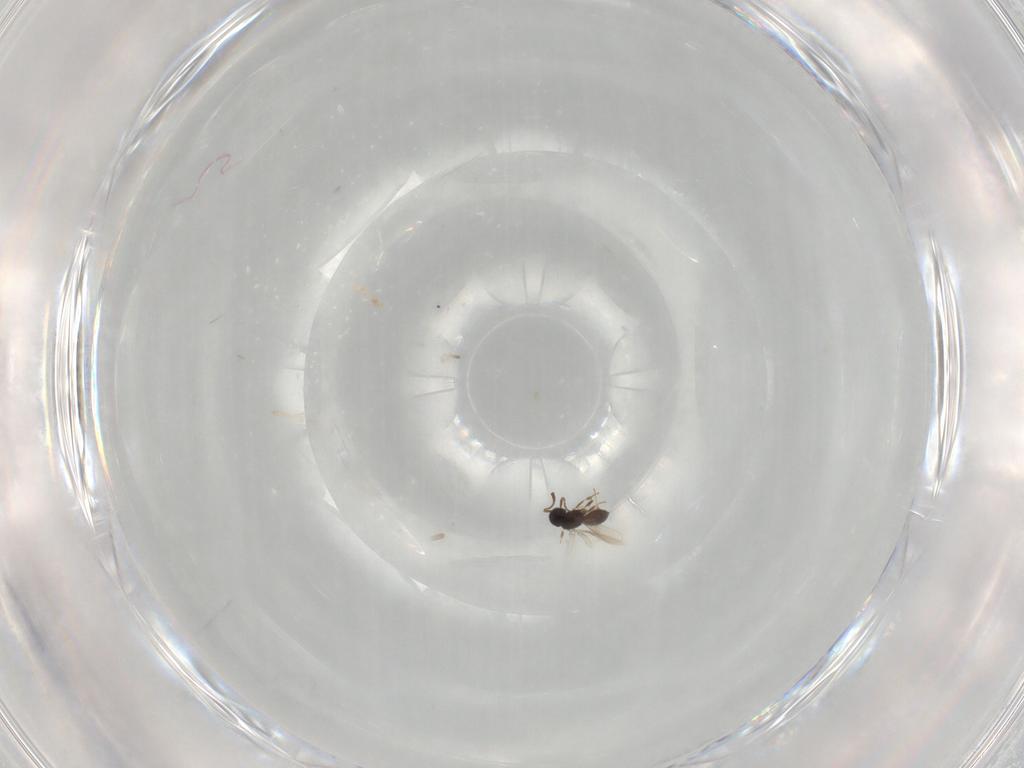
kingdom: Animalia
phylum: Arthropoda
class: Insecta
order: Hymenoptera
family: Scelionidae
